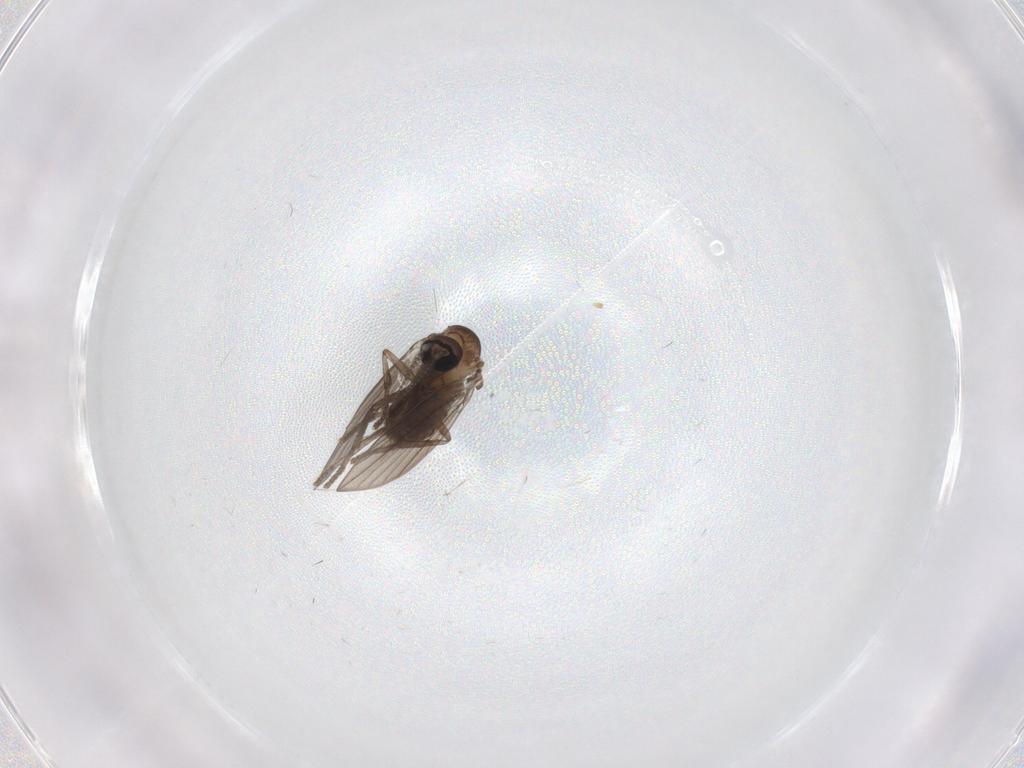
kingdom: Animalia
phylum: Arthropoda
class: Insecta
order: Diptera
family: Psychodidae
